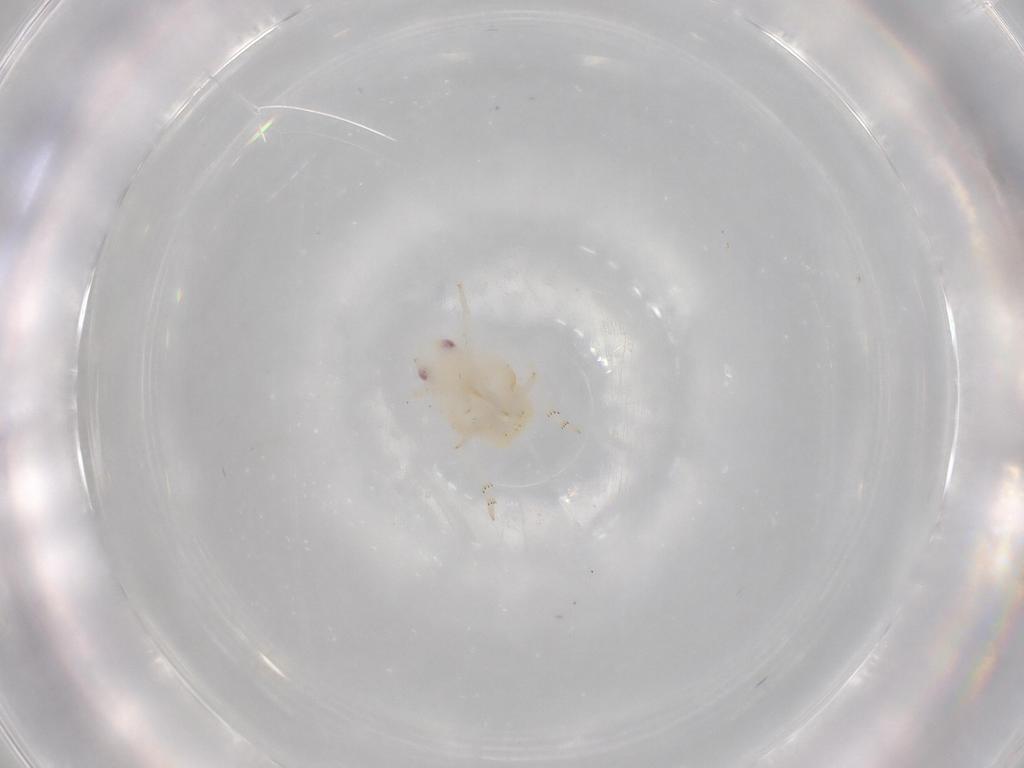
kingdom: Animalia
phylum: Arthropoda
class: Insecta
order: Hemiptera
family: Flatidae
